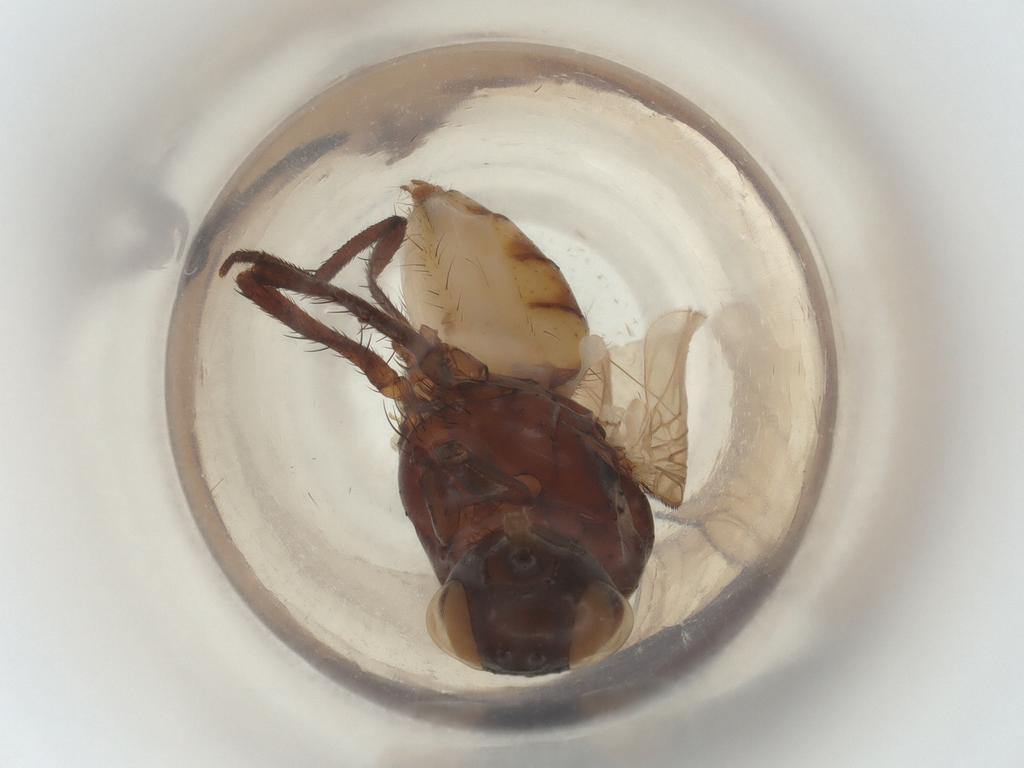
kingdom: Animalia
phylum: Arthropoda
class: Insecta
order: Diptera
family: Anthomyiidae
